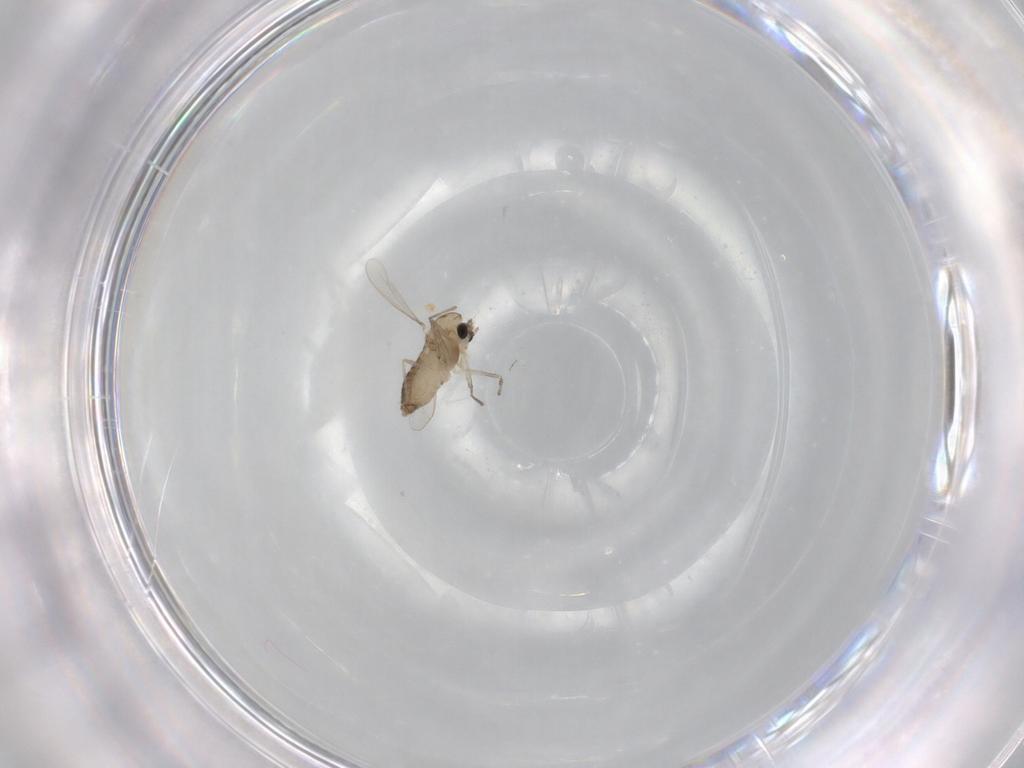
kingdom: Animalia
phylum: Arthropoda
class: Insecta
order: Diptera
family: Chironomidae
